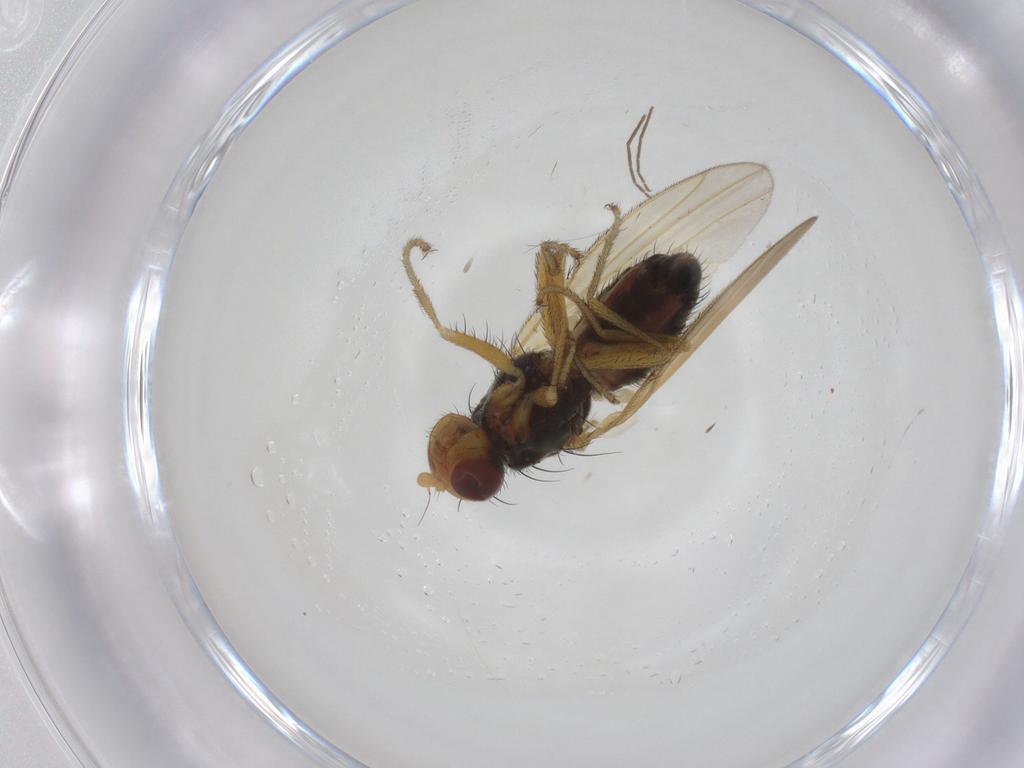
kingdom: Animalia
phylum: Arthropoda
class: Insecta
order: Diptera
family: Heleomyzidae
